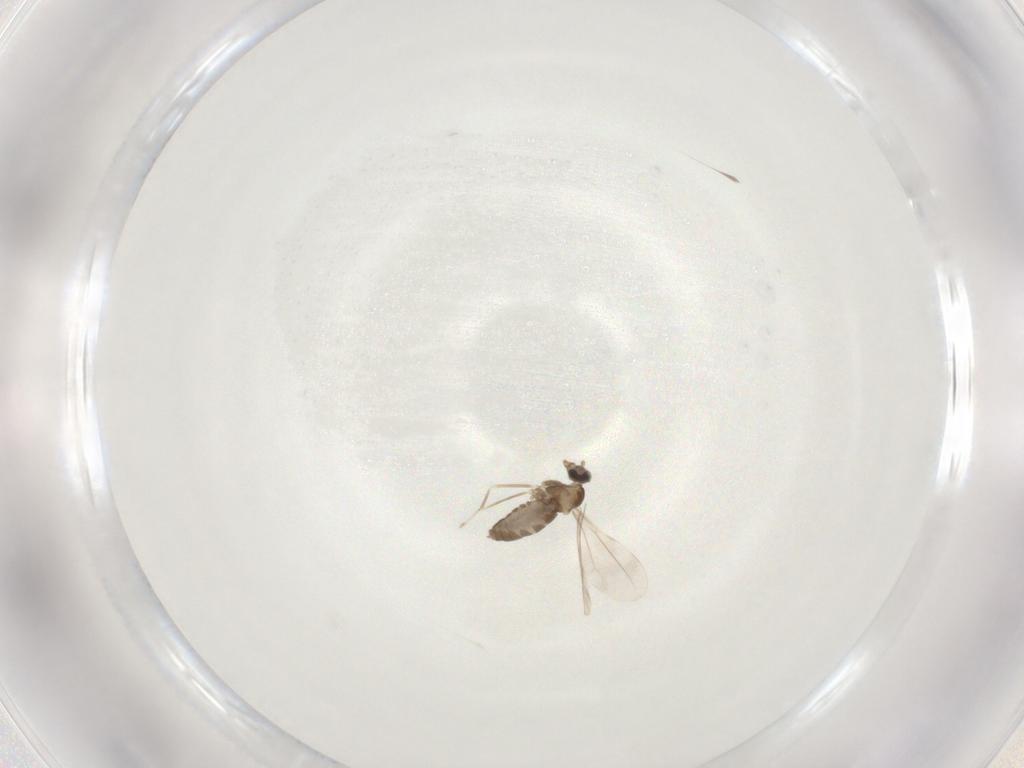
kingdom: Animalia
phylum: Arthropoda
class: Insecta
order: Diptera
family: Cecidomyiidae
